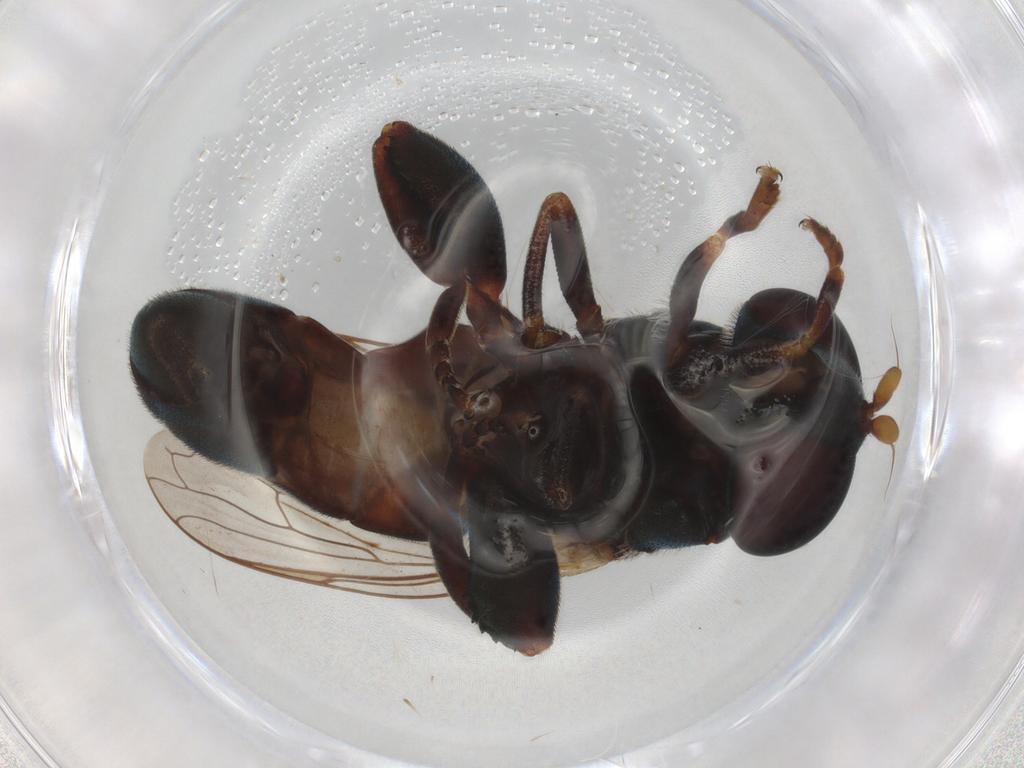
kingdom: Animalia
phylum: Arthropoda
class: Insecta
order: Diptera
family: Syrphidae
